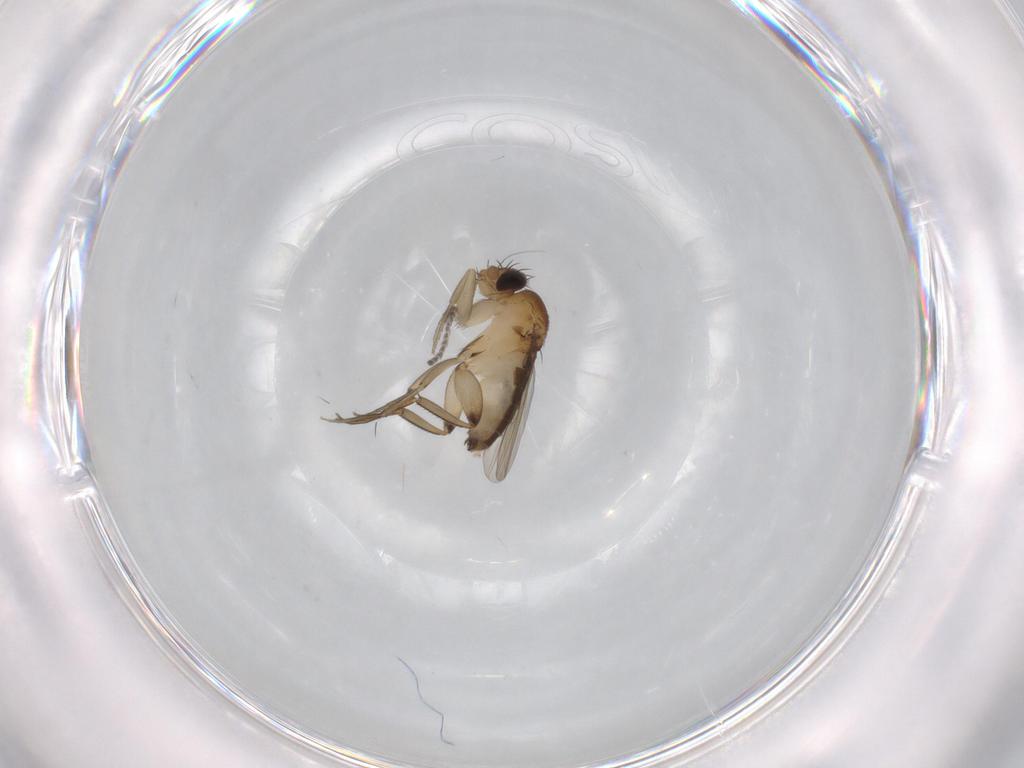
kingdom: Animalia
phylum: Arthropoda
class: Insecta
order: Diptera
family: Phoridae
